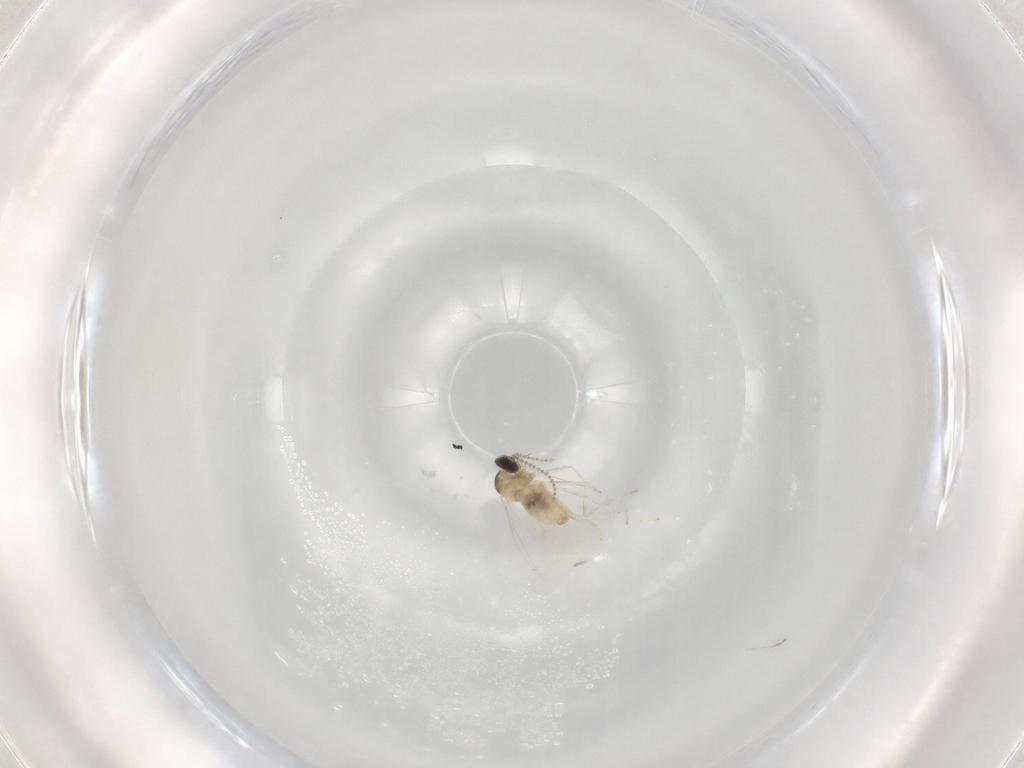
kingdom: Animalia
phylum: Arthropoda
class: Insecta
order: Diptera
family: Cecidomyiidae
